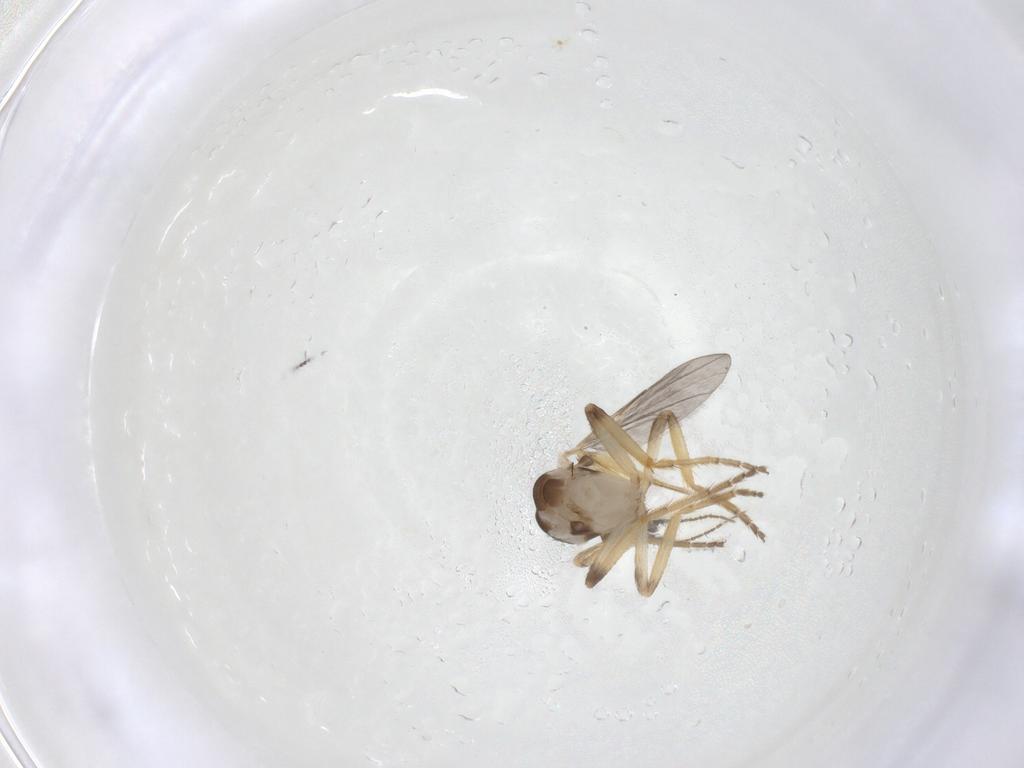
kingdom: Animalia
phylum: Arthropoda
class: Insecta
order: Diptera
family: Ceratopogonidae
